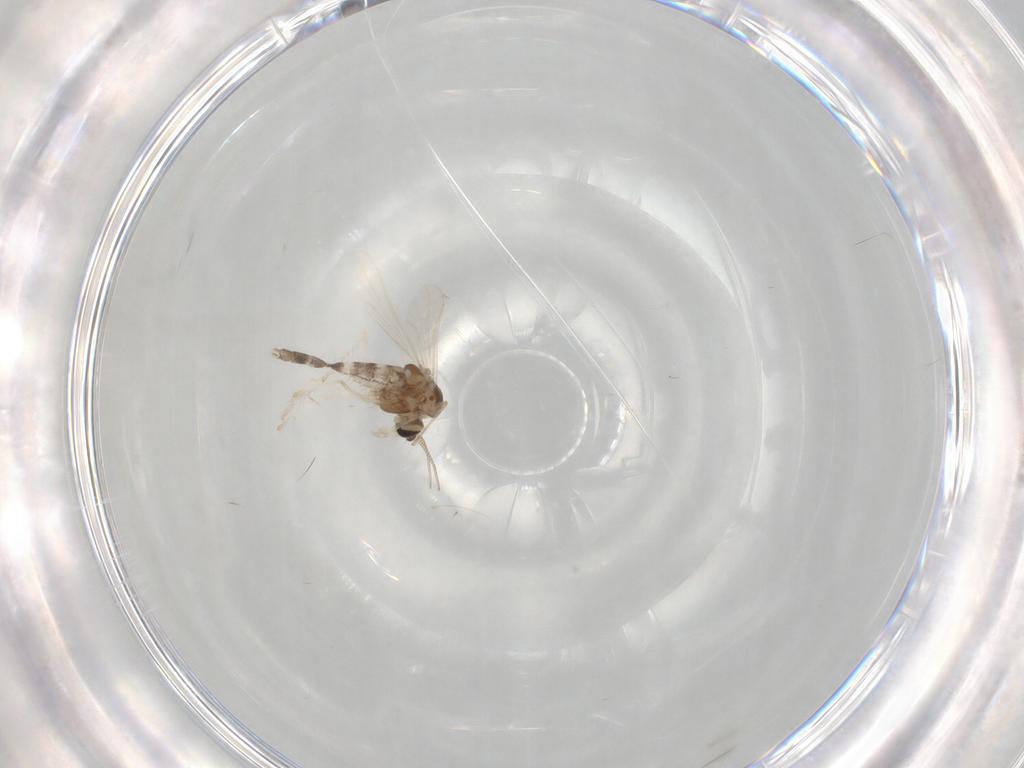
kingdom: Animalia
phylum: Arthropoda
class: Insecta
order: Diptera
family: Chironomidae
